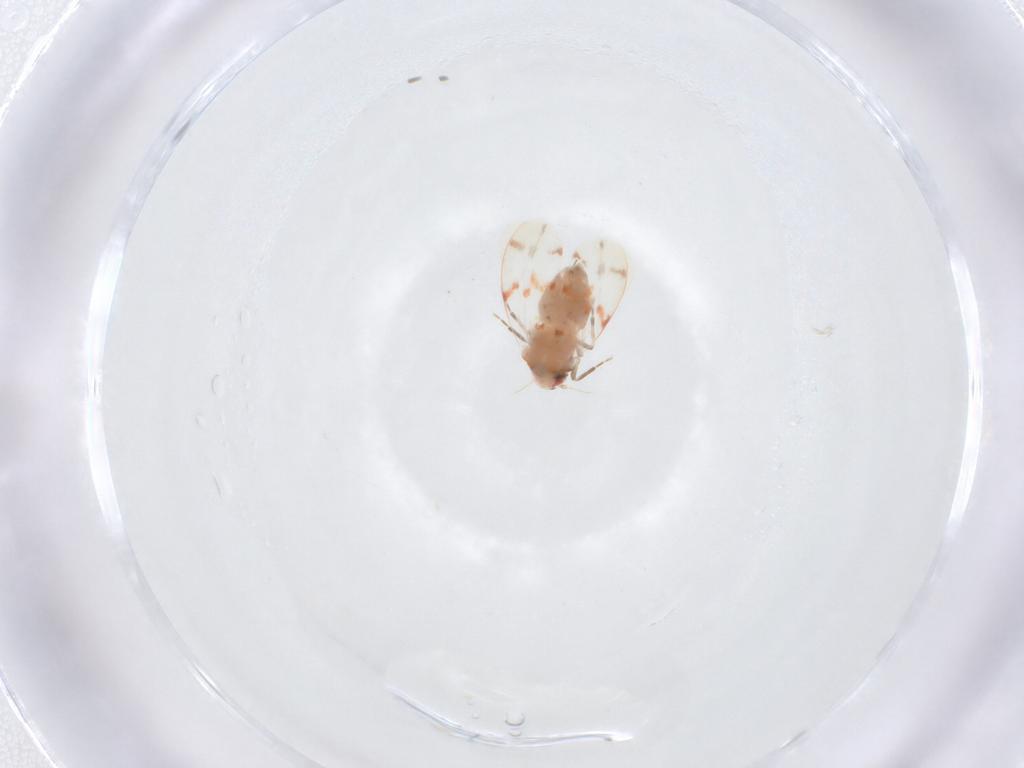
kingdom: Animalia
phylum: Arthropoda
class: Insecta
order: Hemiptera
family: Aleyrodidae
